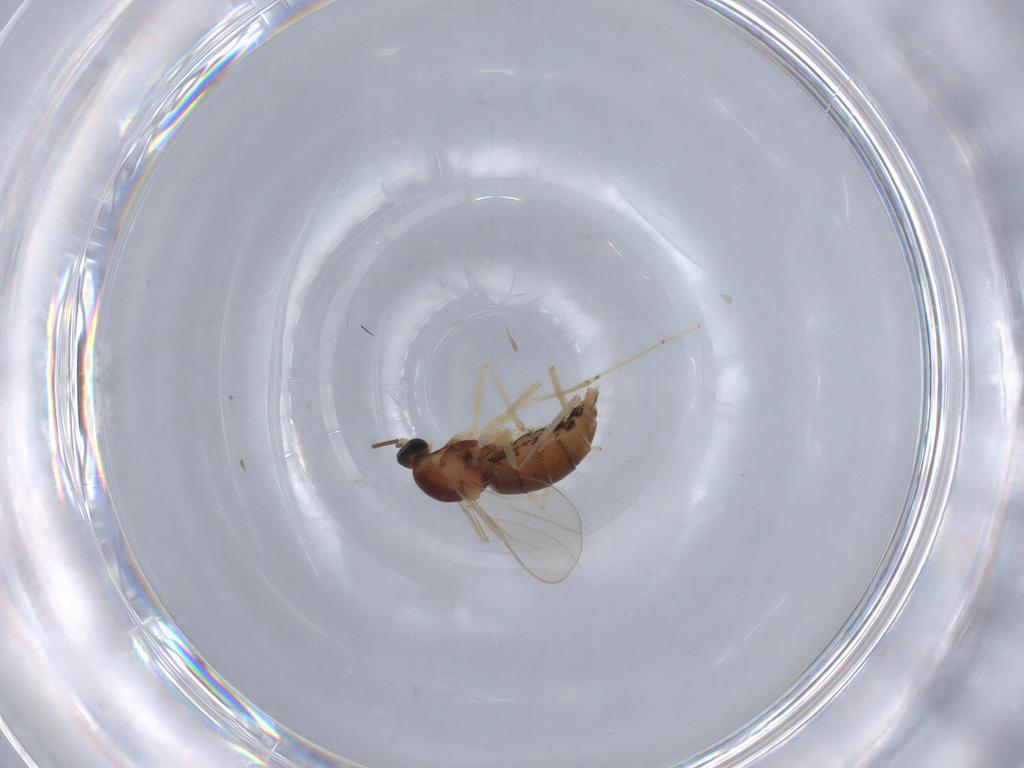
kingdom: Animalia
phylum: Arthropoda
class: Insecta
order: Diptera
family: Cecidomyiidae
